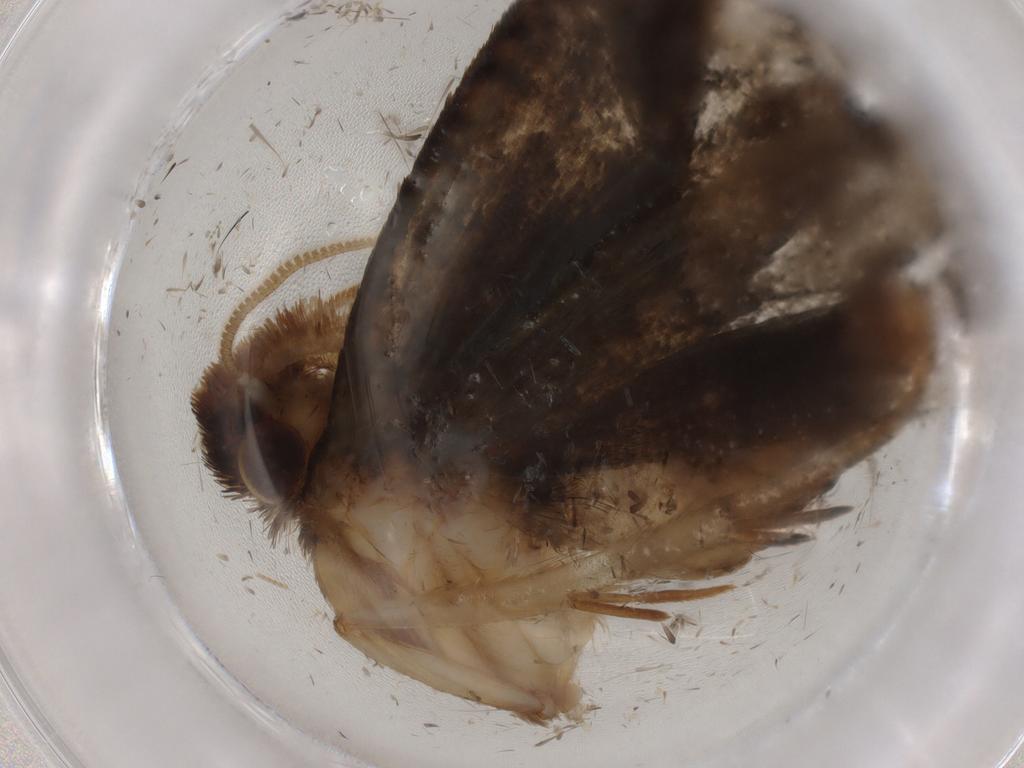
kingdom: Animalia
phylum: Arthropoda
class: Insecta
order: Lepidoptera
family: Tineidae
